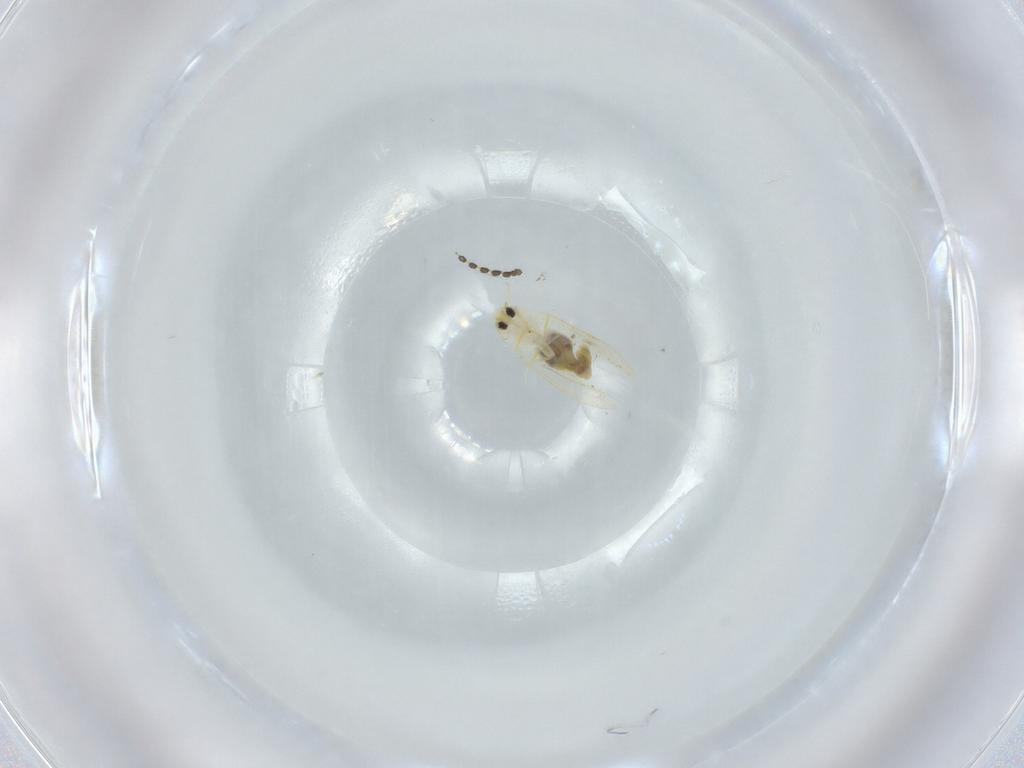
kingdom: Animalia
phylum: Arthropoda
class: Insecta
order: Hemiptera
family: Aleyrodidae
